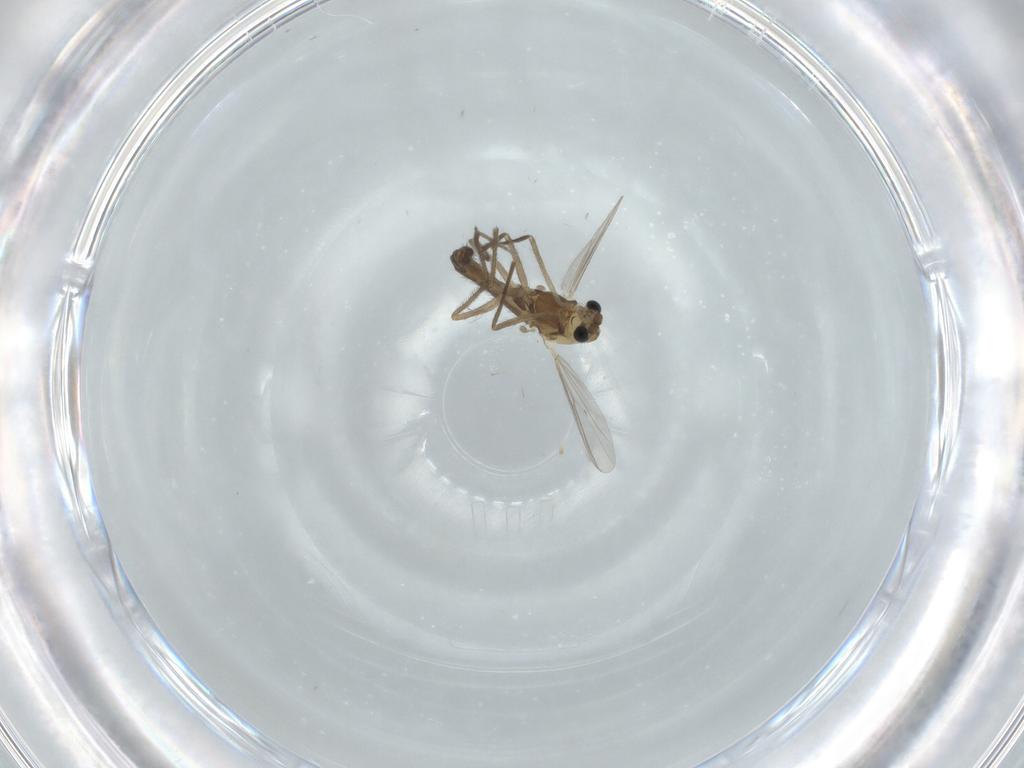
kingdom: Animalia
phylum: Arthropoda
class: Insecta
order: Diptera
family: Chironomidae
